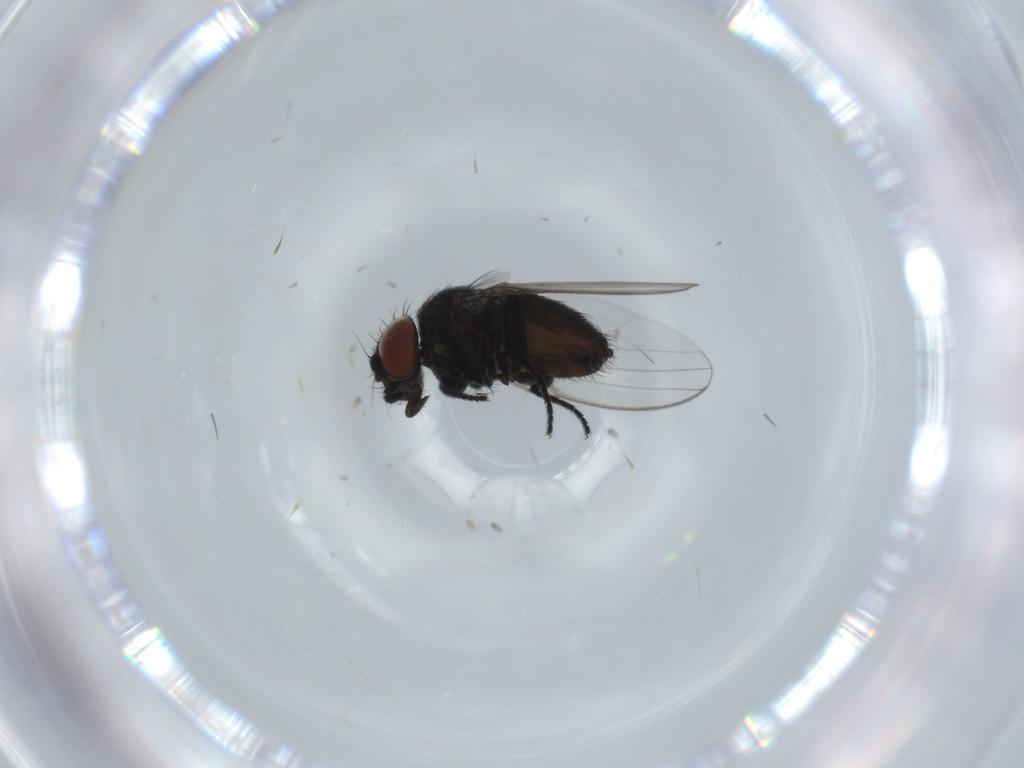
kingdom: Animalia
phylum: Arthropoda
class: Insecta
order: Diptera
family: Milichiidae
